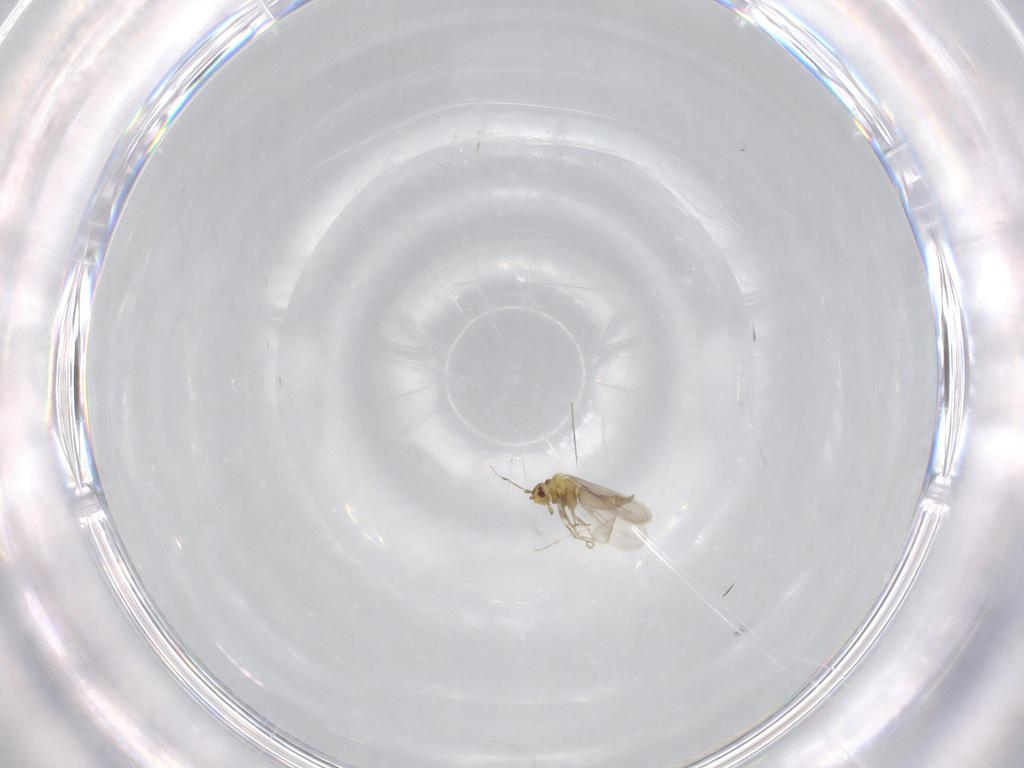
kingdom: Animalia
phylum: Arthropoda
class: Insecta
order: Hemiptera
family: Aleyrodidae
